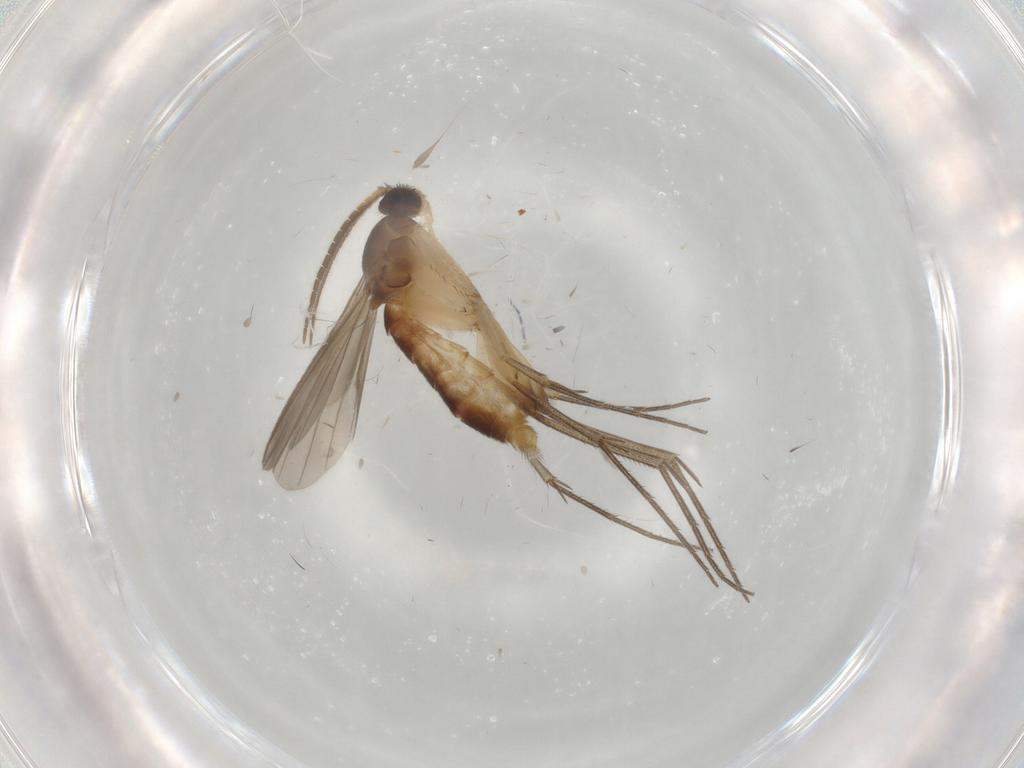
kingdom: Animalia
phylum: Arthropoda
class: Insecta
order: Diptera
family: Mycetophilidae
